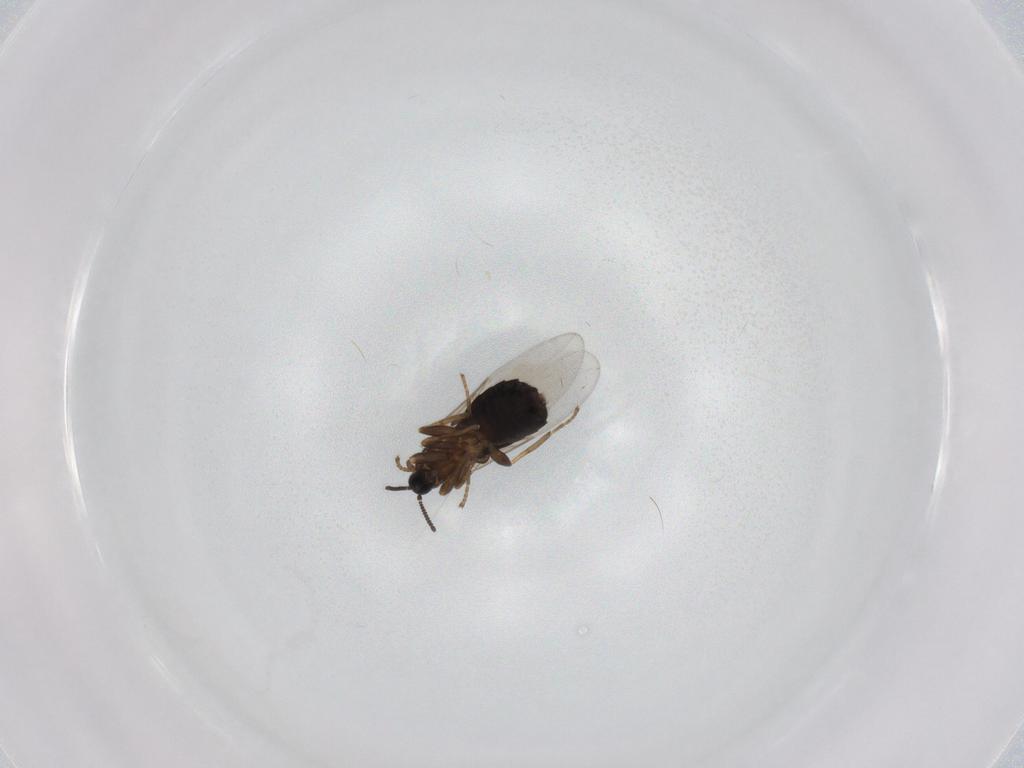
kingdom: Animalia
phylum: Arthropoda
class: Insecta
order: Diptera
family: Scatopsidae
